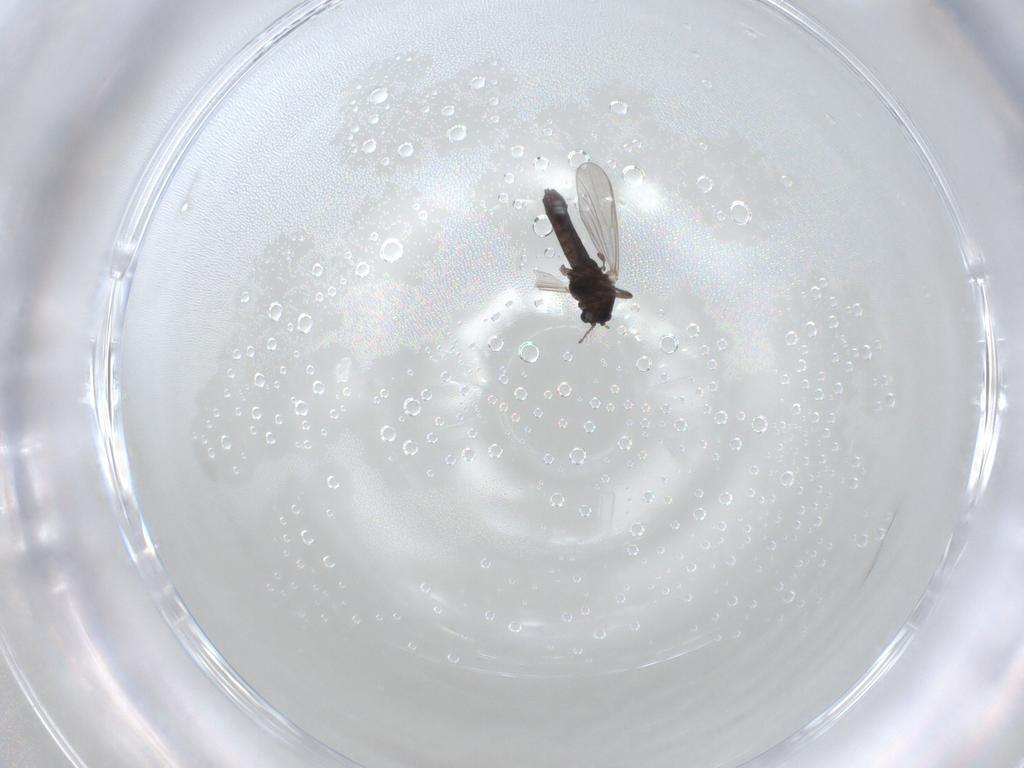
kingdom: Animalia
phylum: Arthropoda
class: Insecta
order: Diptera
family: Chironomidae
